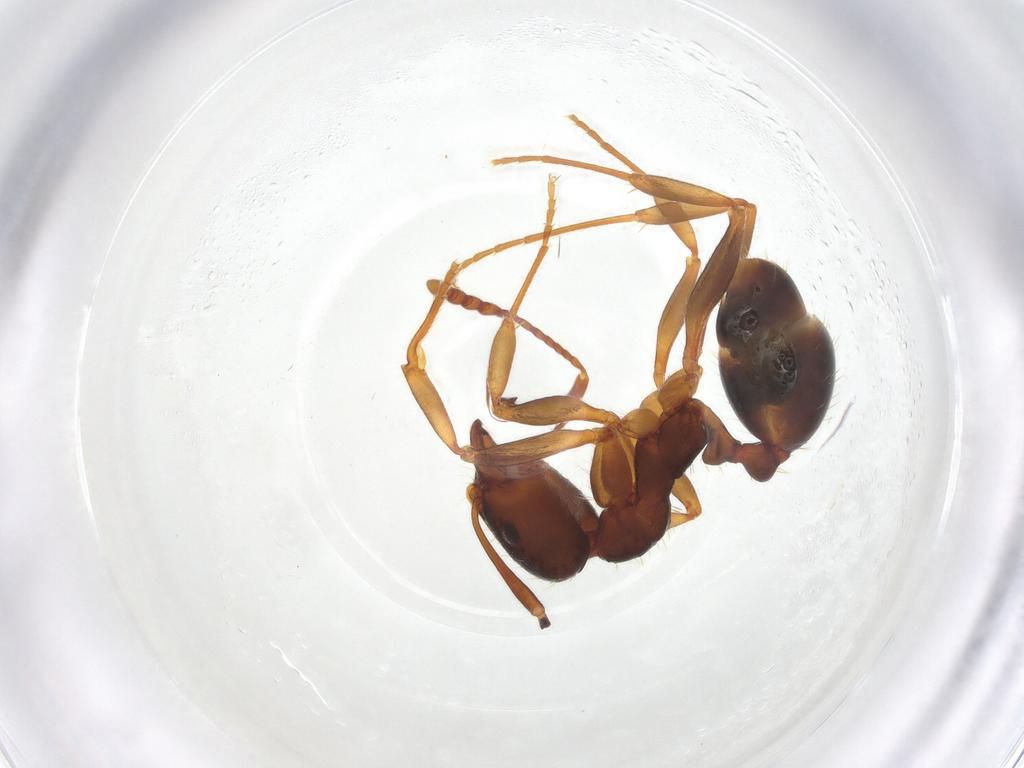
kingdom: Animalia
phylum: Arthropoda
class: Insecta
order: Hymenoptera
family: Formicidae
